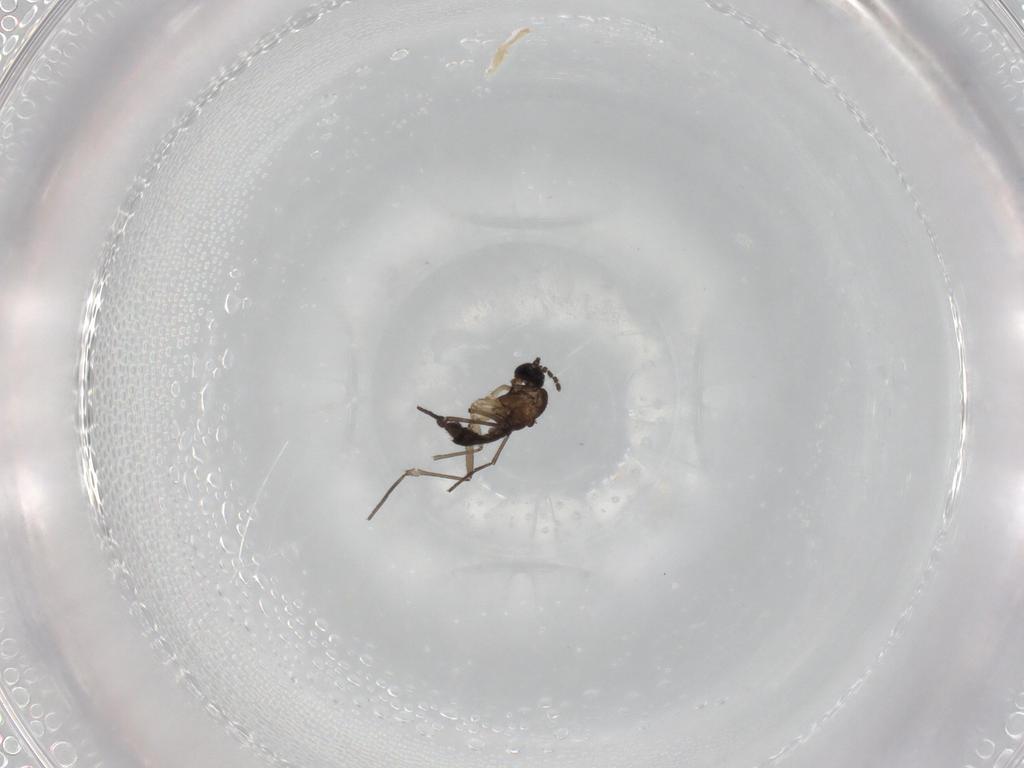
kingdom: Animalia
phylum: Arthropoda
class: Insecta
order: Diptera
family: Sciaridae
